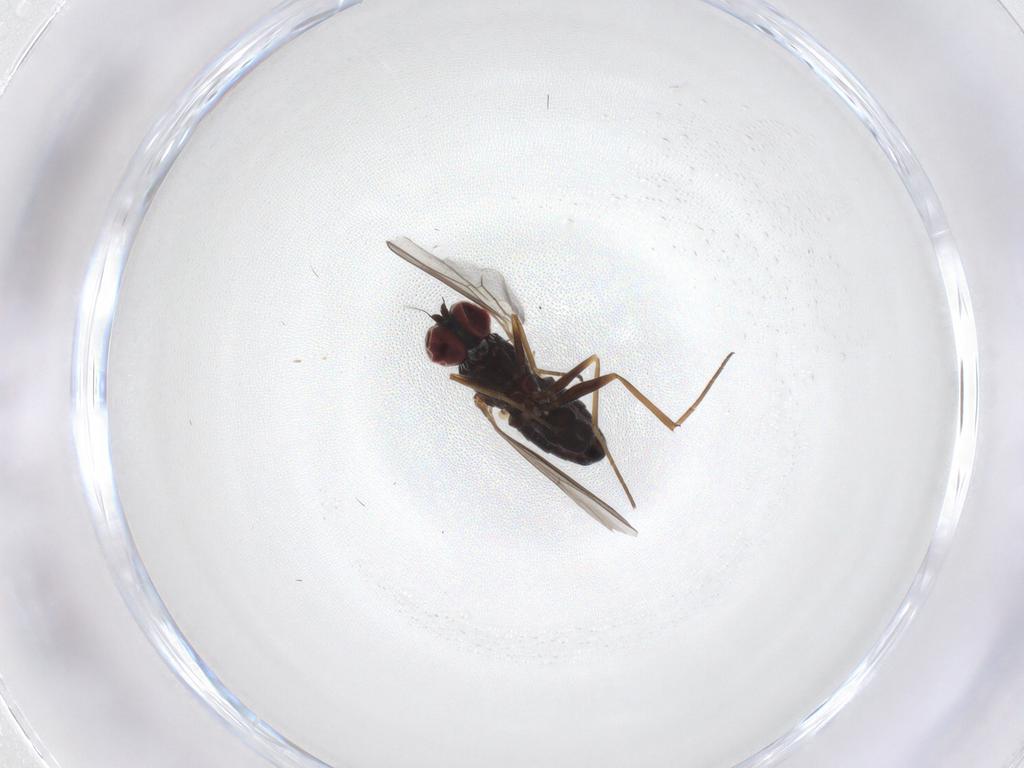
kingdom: Animalia
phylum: Arthropoda
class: Insecta
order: Diptera
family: Dolichopodidae
